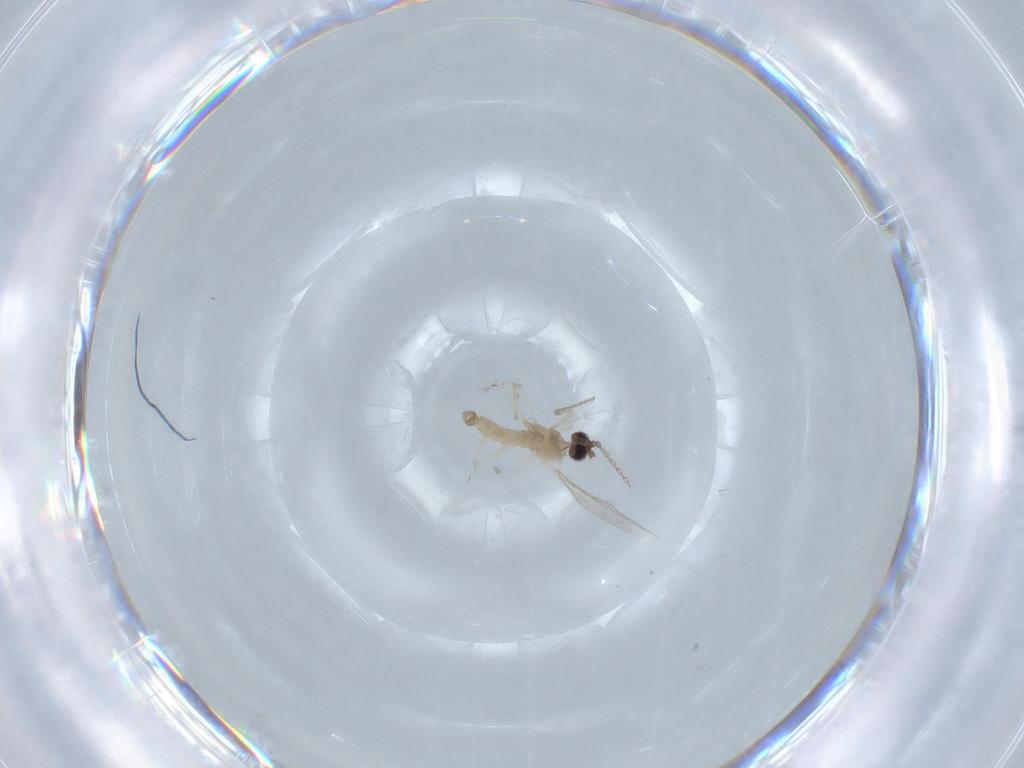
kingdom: Animalia
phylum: Arthropoda
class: Insecta
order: Diptera
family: Cecidomyiidae
